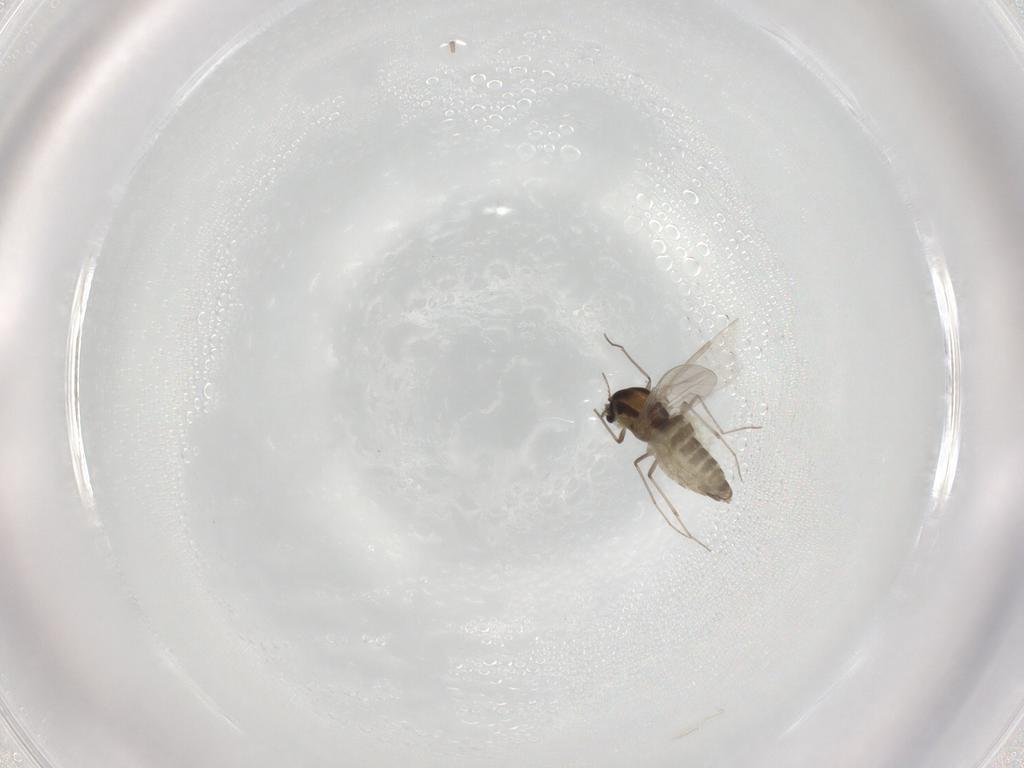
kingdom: Animalia
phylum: Arthropoda
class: Insecta
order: Diptera
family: Chironomidae
